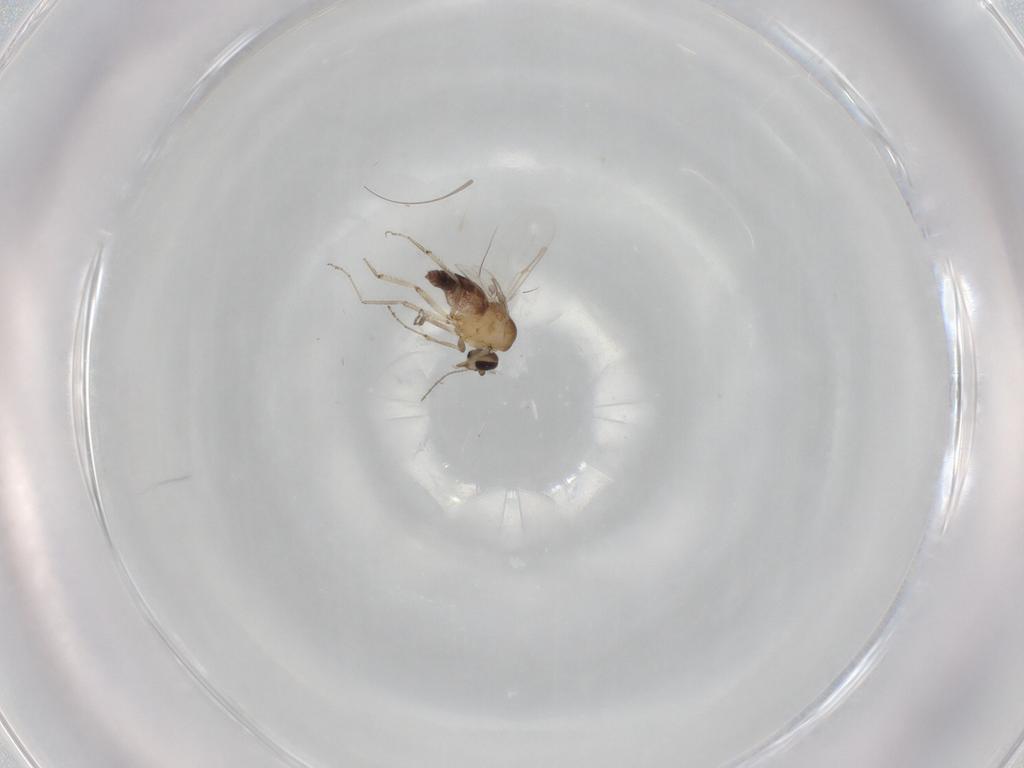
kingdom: Animalia
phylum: Arthropoda
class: Insecta
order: Diptera
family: Ceratopogonidae
